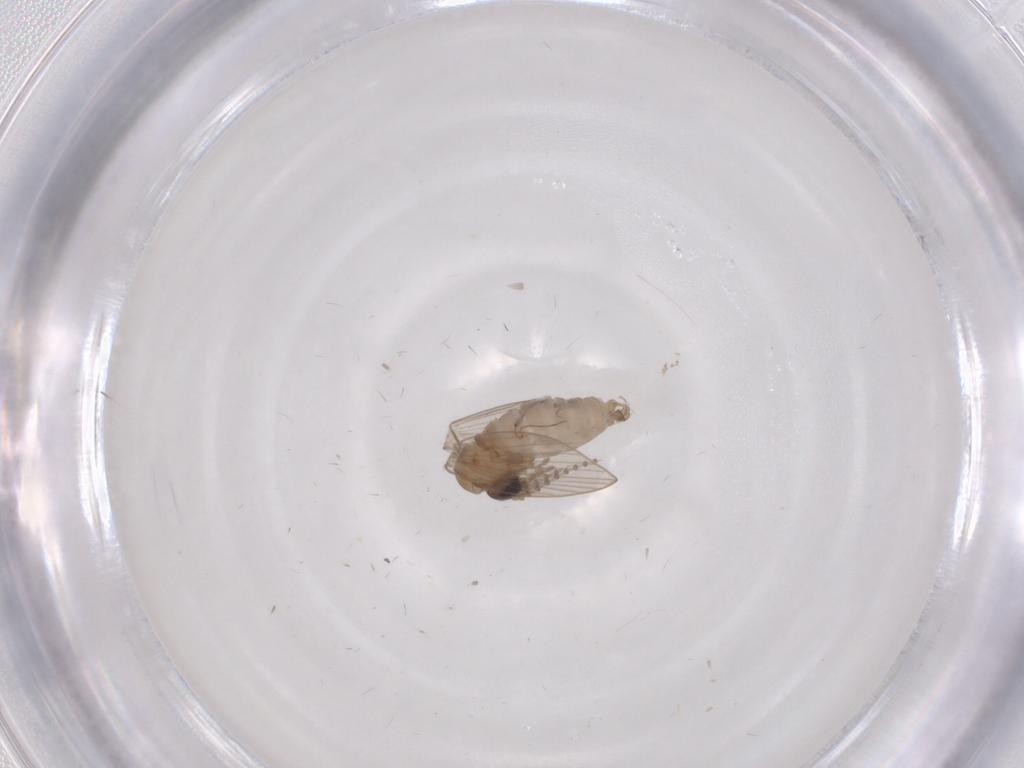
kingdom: Animalia
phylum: Arthropoda
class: Insecta
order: Diptera
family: Psychodidae
